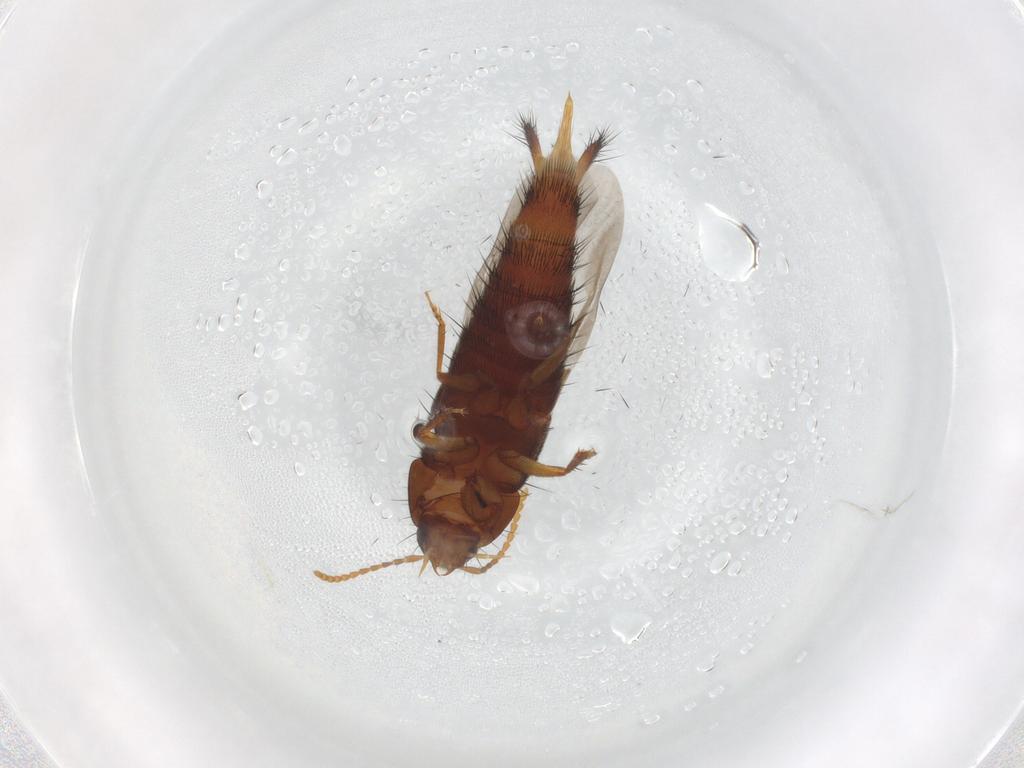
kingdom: Animalia
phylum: Arthropoda
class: Insecta
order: Coleoptera
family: Staphylinidae
